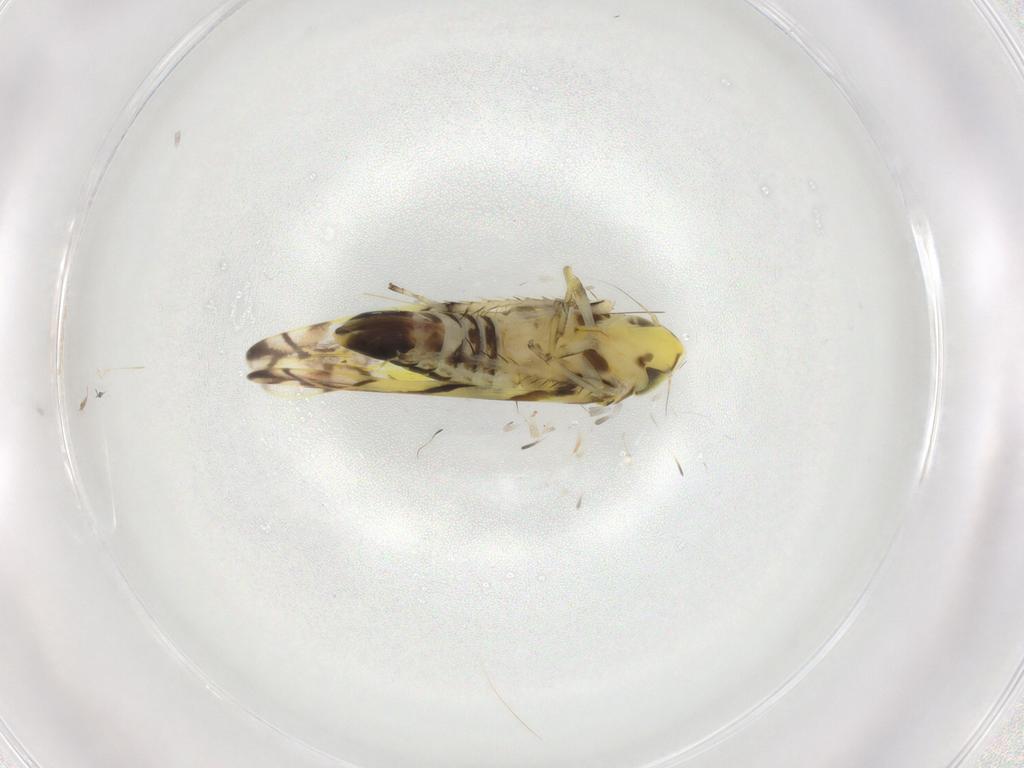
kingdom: Animalia
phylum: Arthropoda
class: Insecta
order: Hemiptera
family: Cicadellidae
